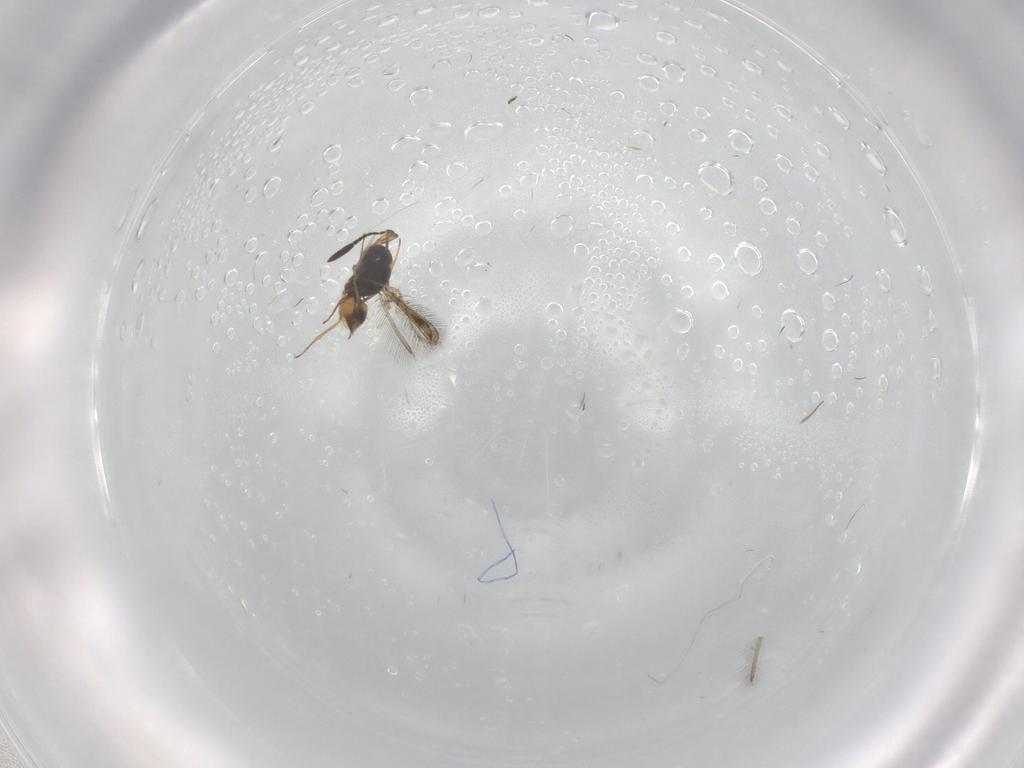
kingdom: Animalia
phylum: Arthropoda
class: Insecta
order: Hymenoptera
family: Mymaridae
